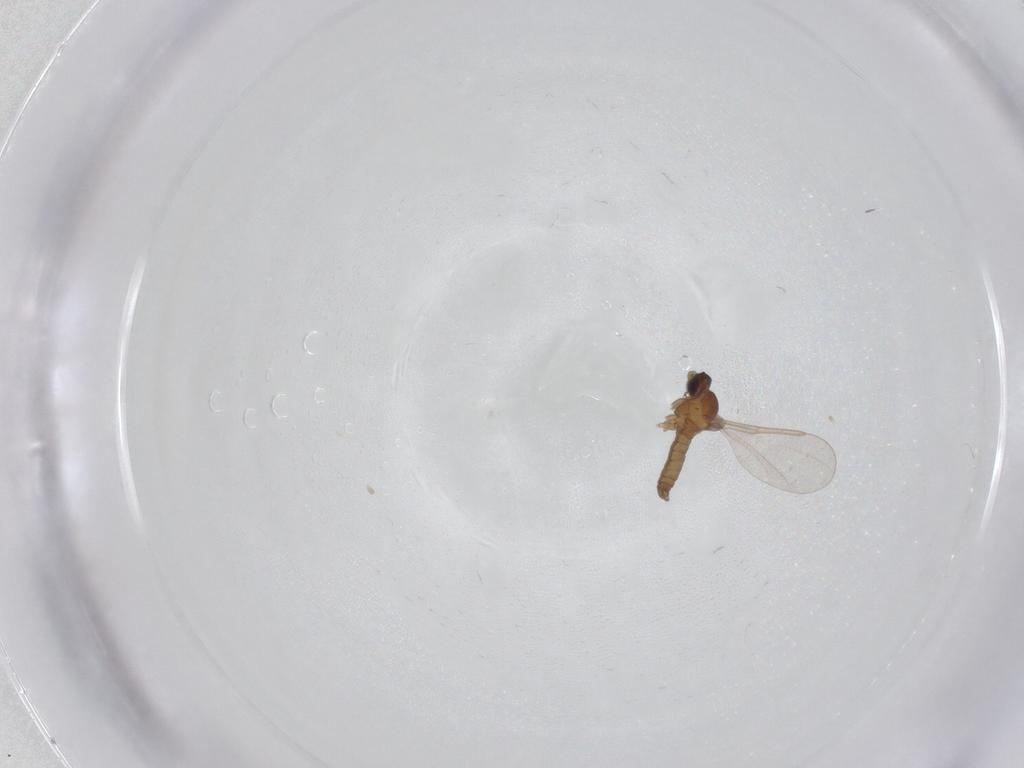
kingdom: Animalia
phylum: Arthropoda
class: Insecta
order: Diptera
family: Cecidomyiidae
